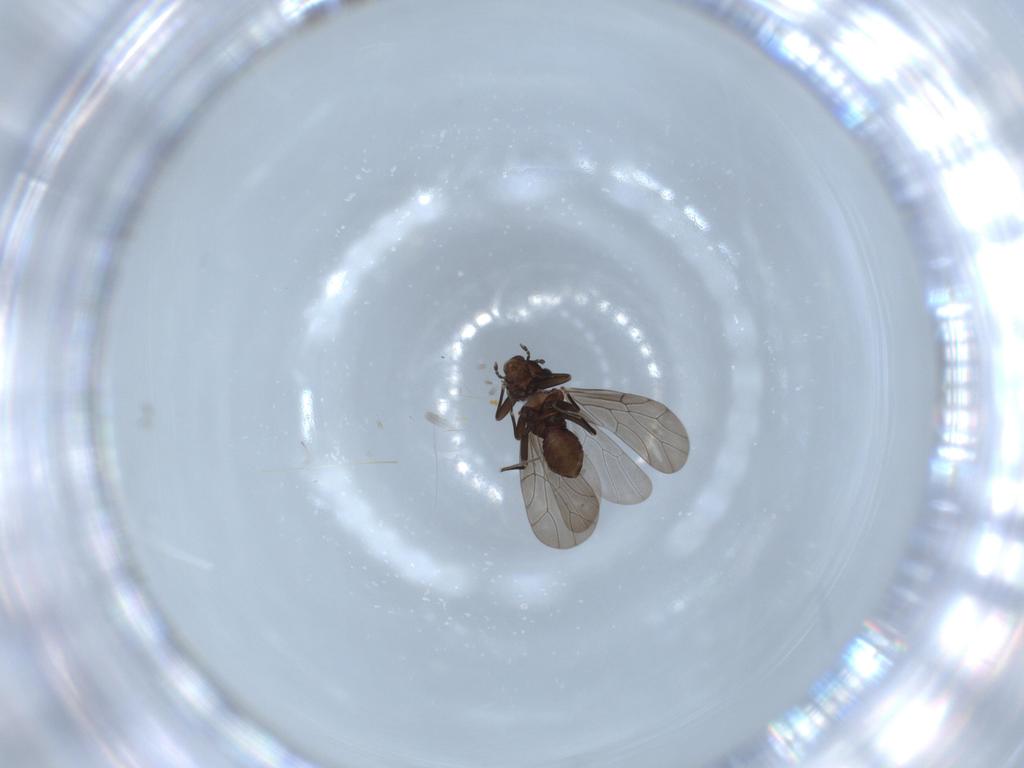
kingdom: Animalia
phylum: Arthropoda
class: Insecta
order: Psocodea
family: Lepidopsocidae
